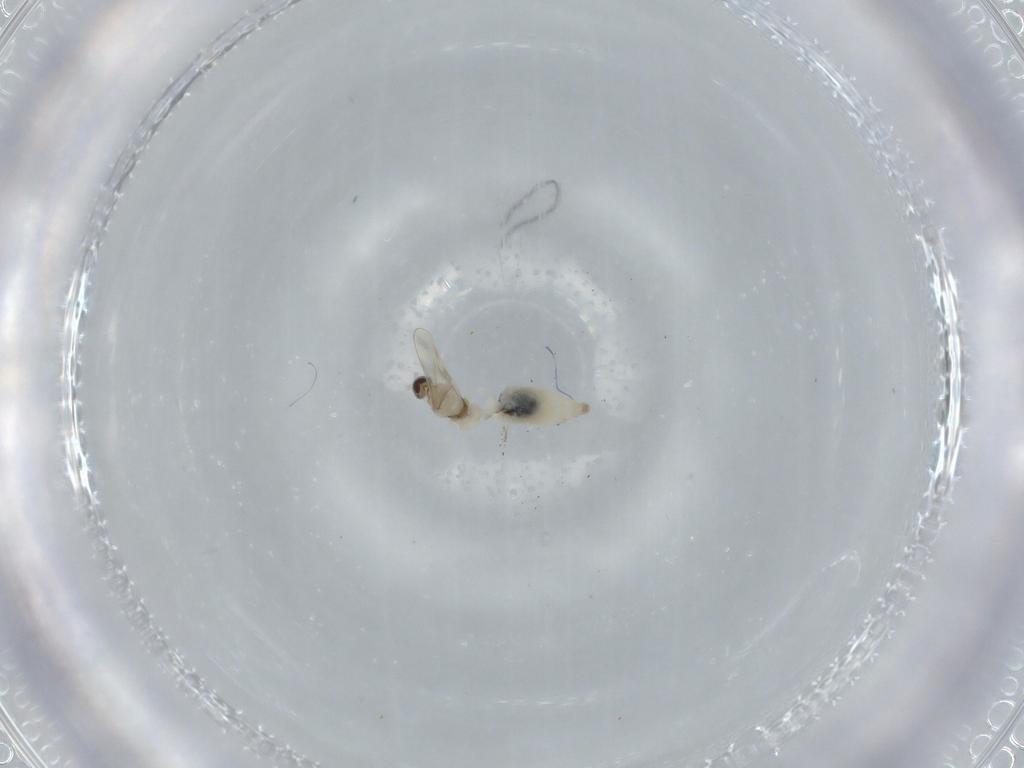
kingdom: Animalia
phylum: Arthropoda
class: Insecta
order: Diptera
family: Cecidomyiidae
